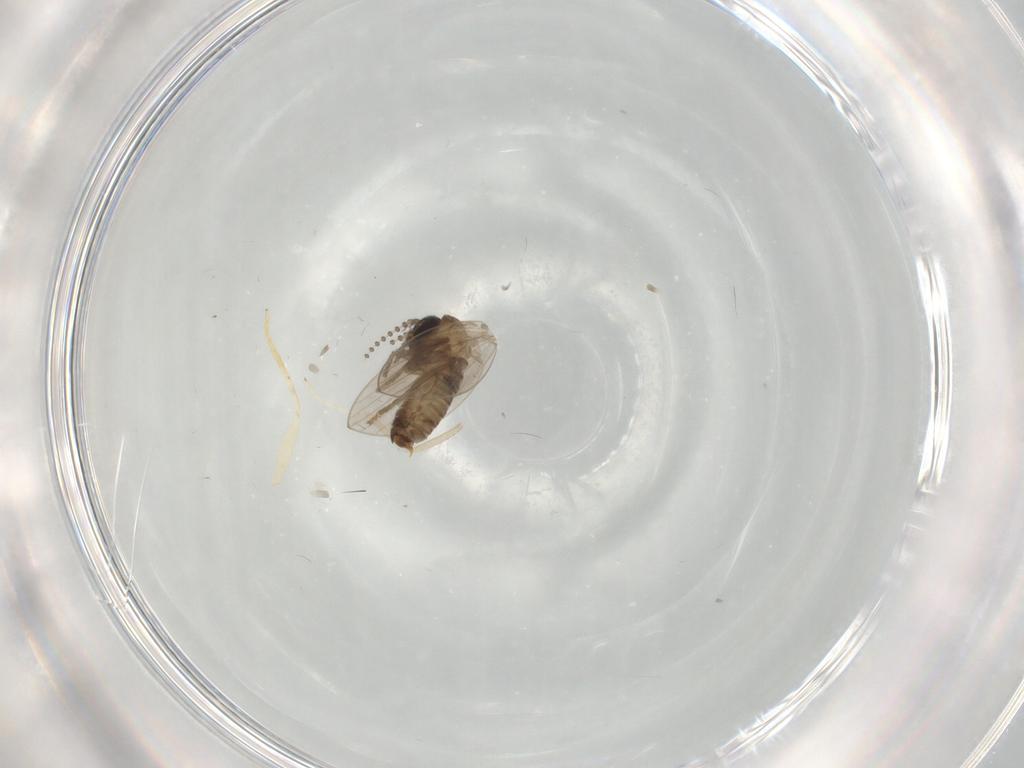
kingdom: Animalia
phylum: Arthropoda
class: Insecta
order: Diptera
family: Cecidomyiidae
